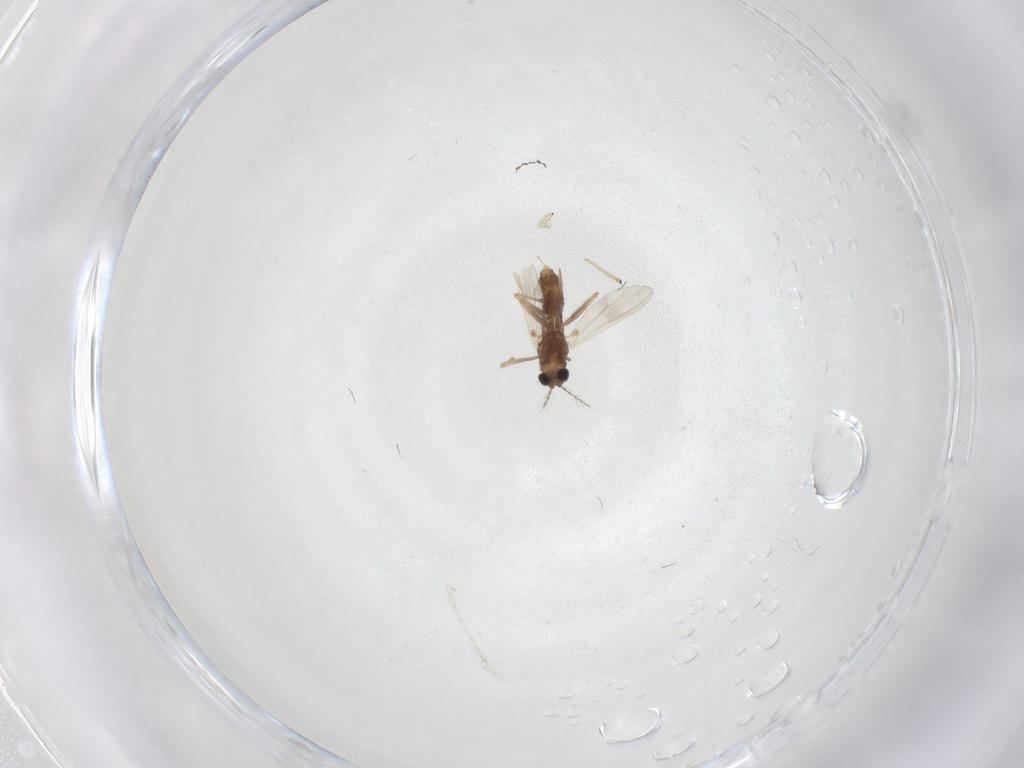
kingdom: Animalia
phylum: Arthropoda
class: Insecta
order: Diptera
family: Chironomidae
